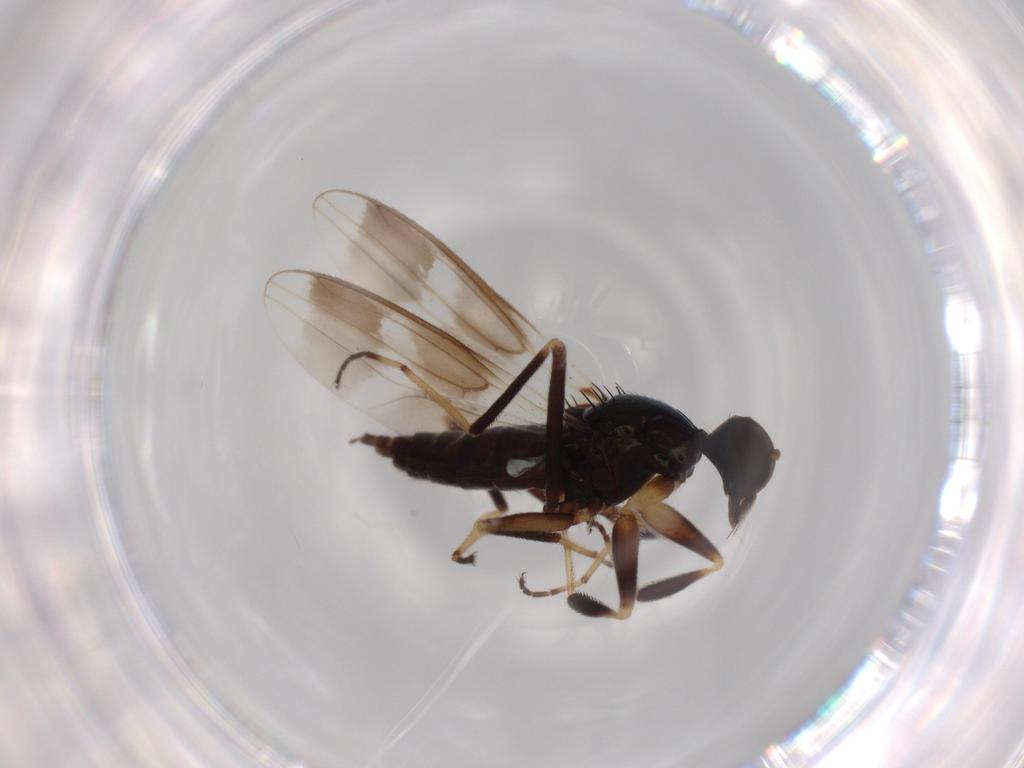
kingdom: Animalia
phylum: Arthropoda
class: Insecta
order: Diptera
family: Hybotidae
